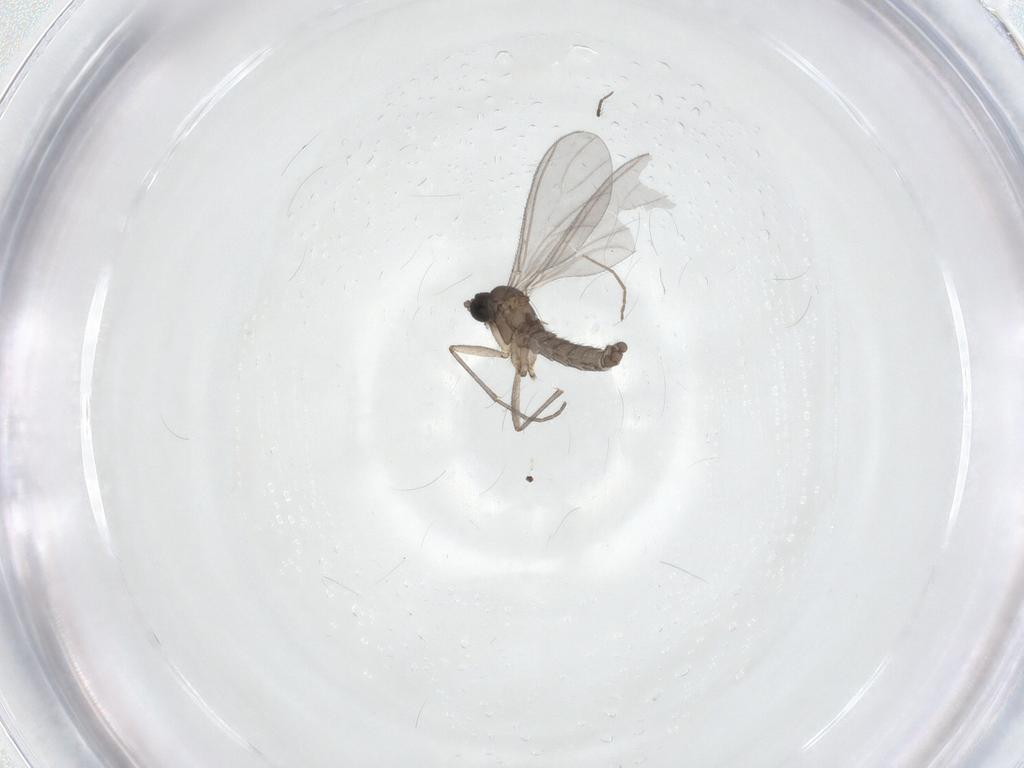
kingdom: Animalia
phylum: Arthropoda
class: Insecta
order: Diptera
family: Sciaridae
